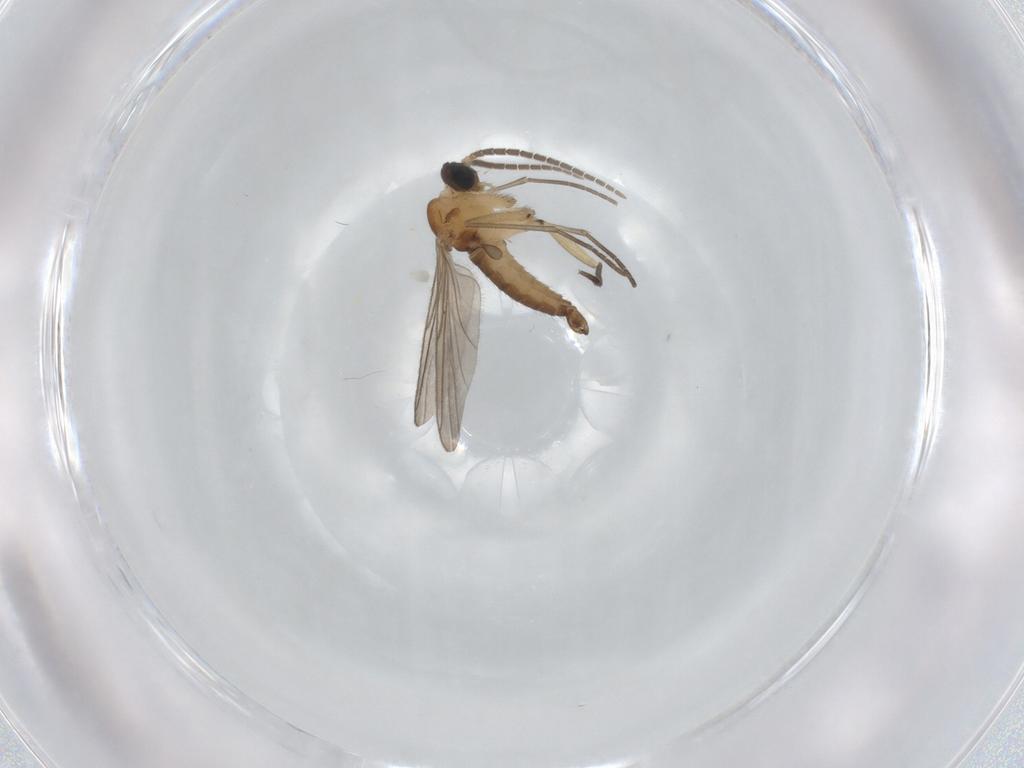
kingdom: Animalia
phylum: Arthropoda
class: Insecta
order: Diptera
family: Sciaridae
